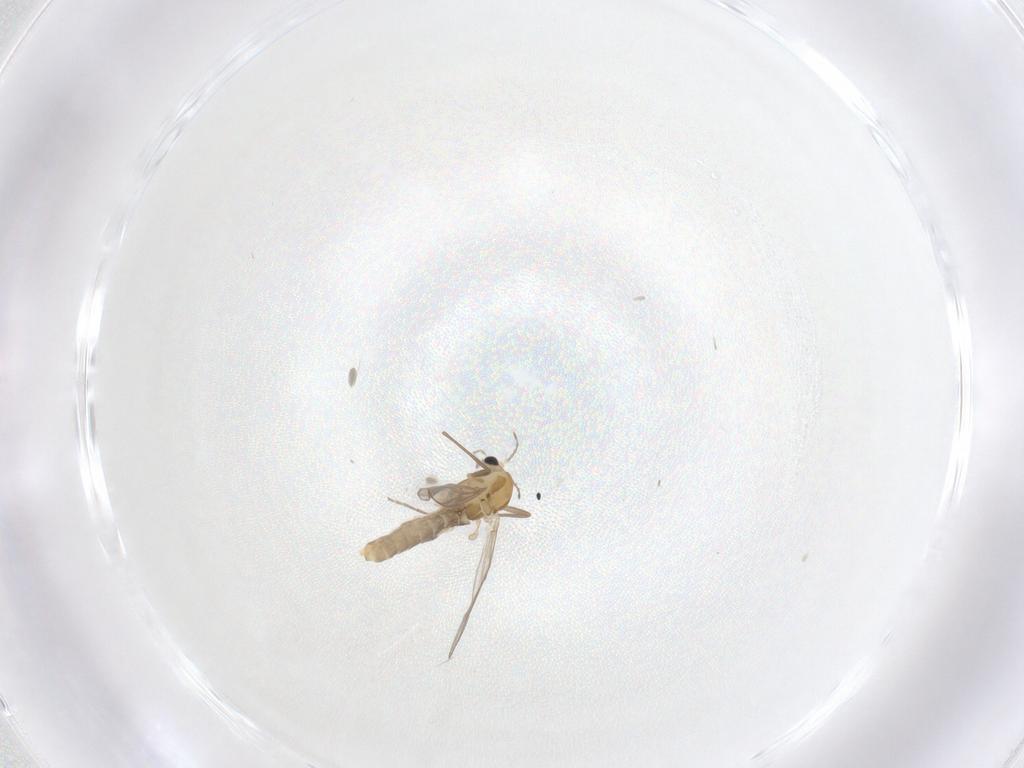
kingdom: Animalia
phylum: Arthropoda
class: Insecta
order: Diptera
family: Chironomidae
